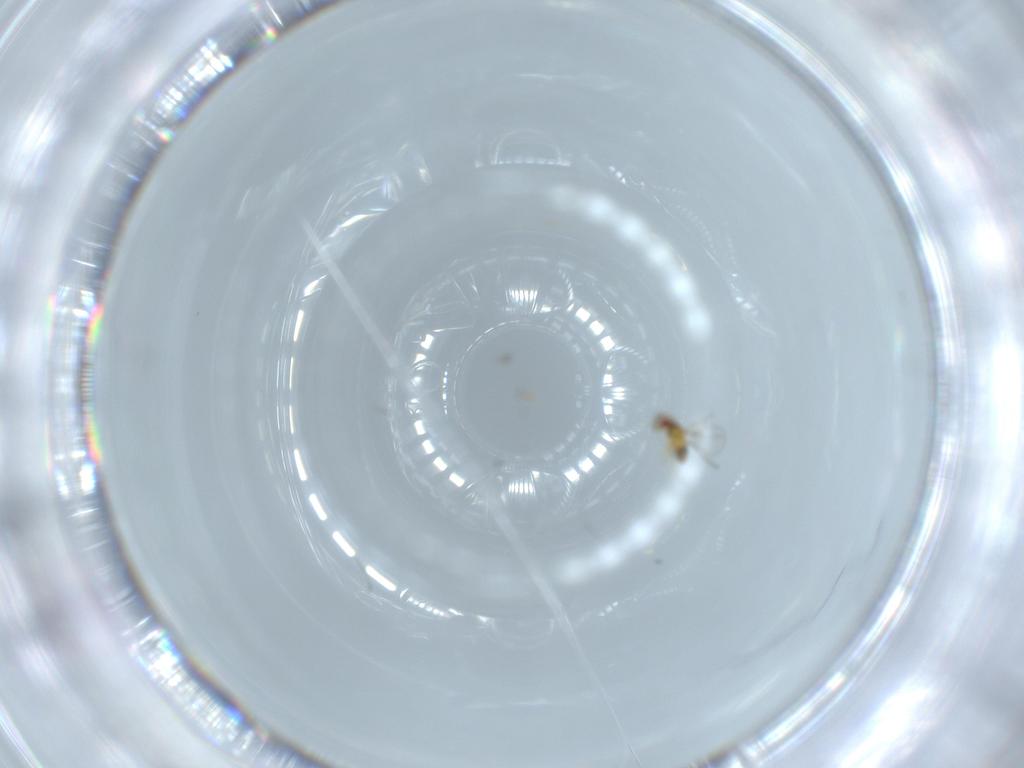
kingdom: Animalia
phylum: Arthropoda
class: Insecta
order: Hymenoptera
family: Trichogrammatidae
